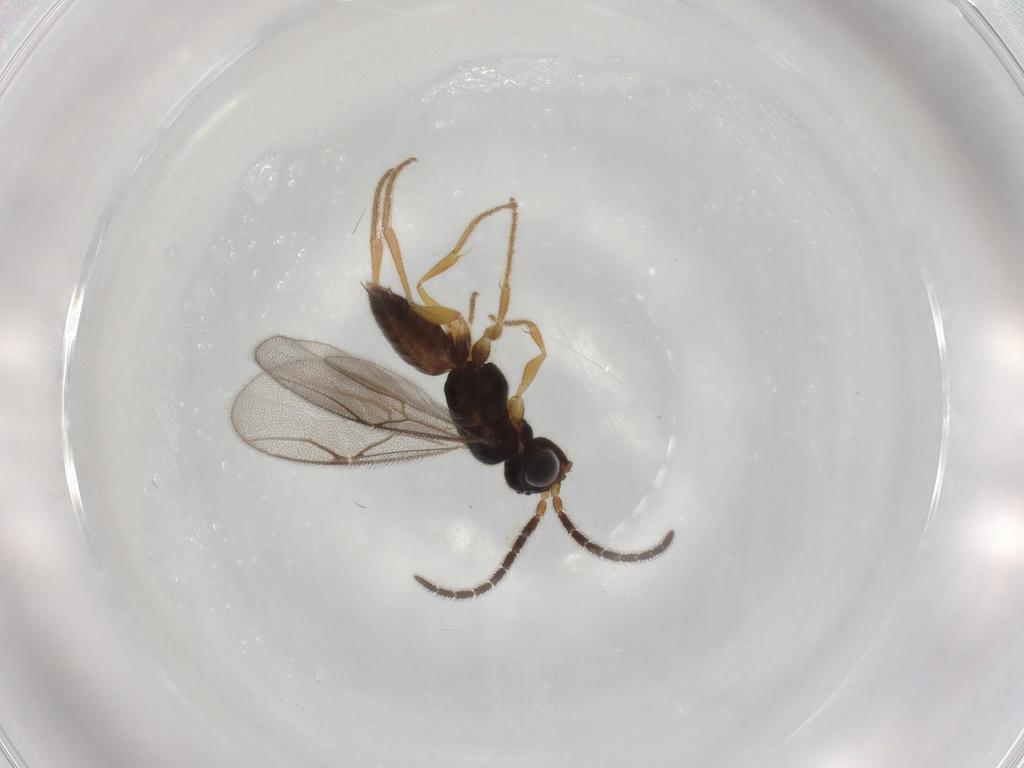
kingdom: Animalia
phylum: Arthropoda
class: Insecta
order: Hymenoptera
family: Dryinidae
